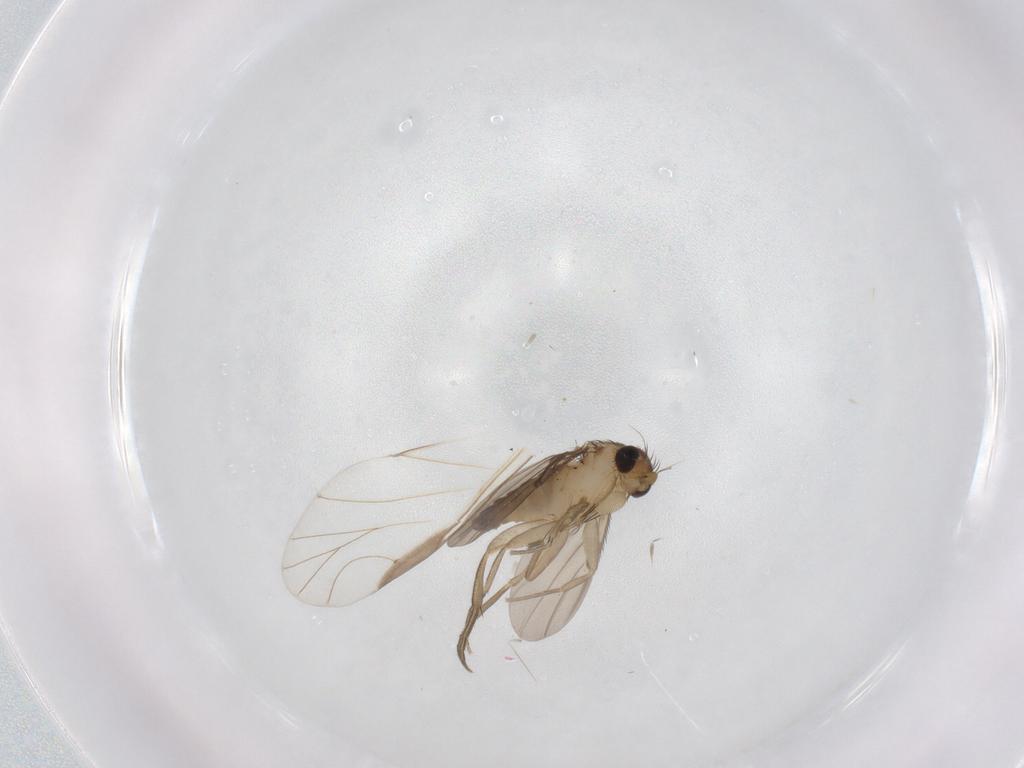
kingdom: Animalia
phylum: Arthropoda
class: Insecta
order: Diptera
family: Phoridae
